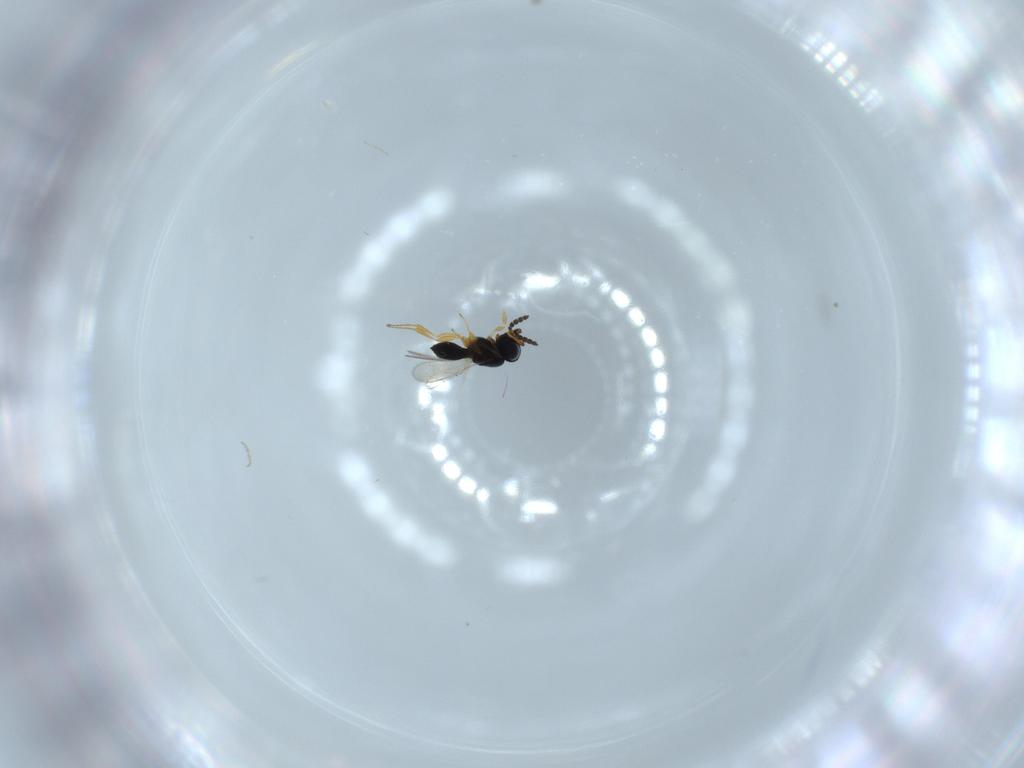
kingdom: Animalia
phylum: Arthropoda
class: Insecta
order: Hymenoptera
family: Scelionidae
